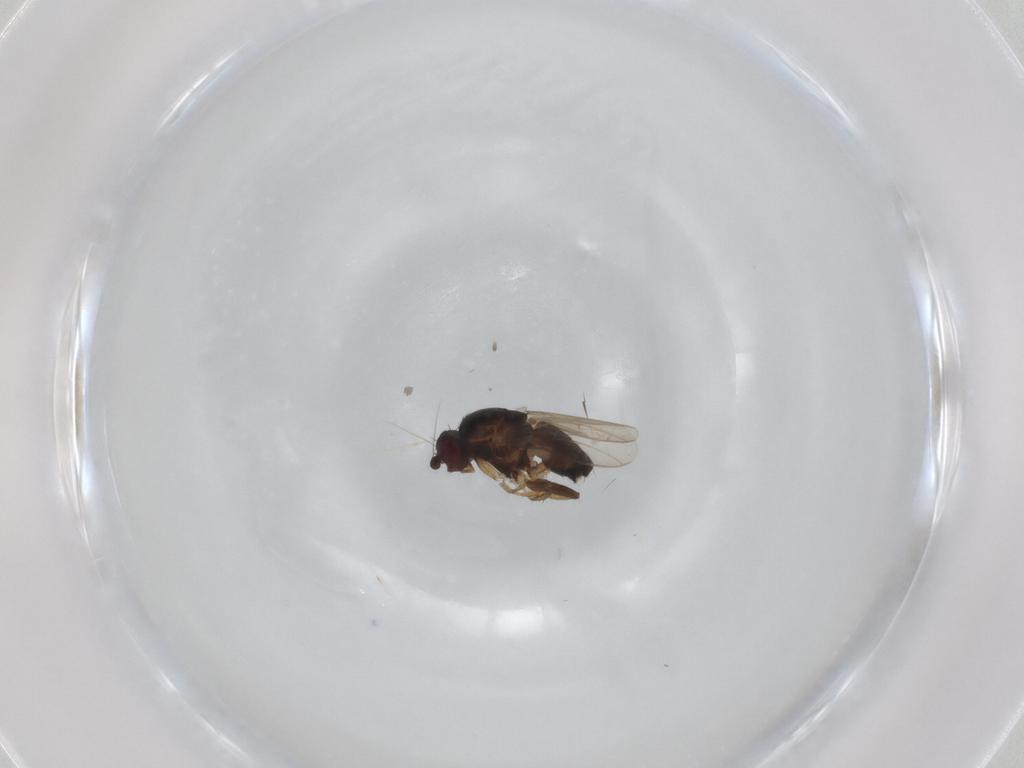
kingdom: Animalia
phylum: Arthropoda
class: Insecta
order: Diptera
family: Sphaeroceridae
